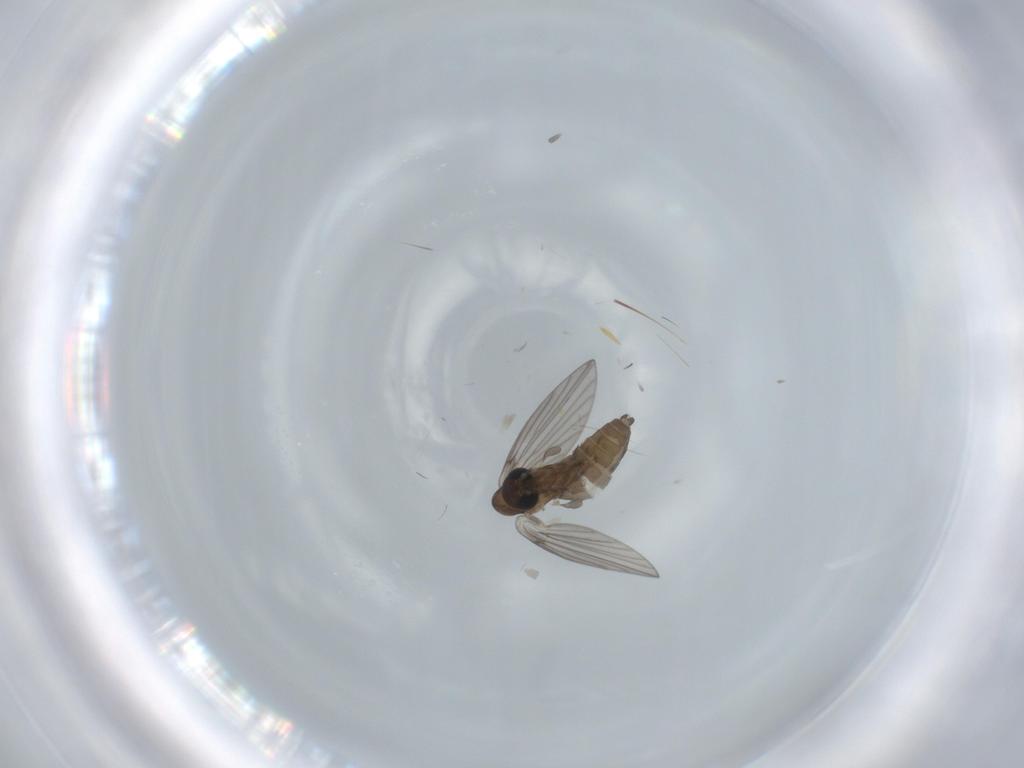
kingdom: Animalia
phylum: Arthropoda
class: Insecta
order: Diptera
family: Psychodidae
